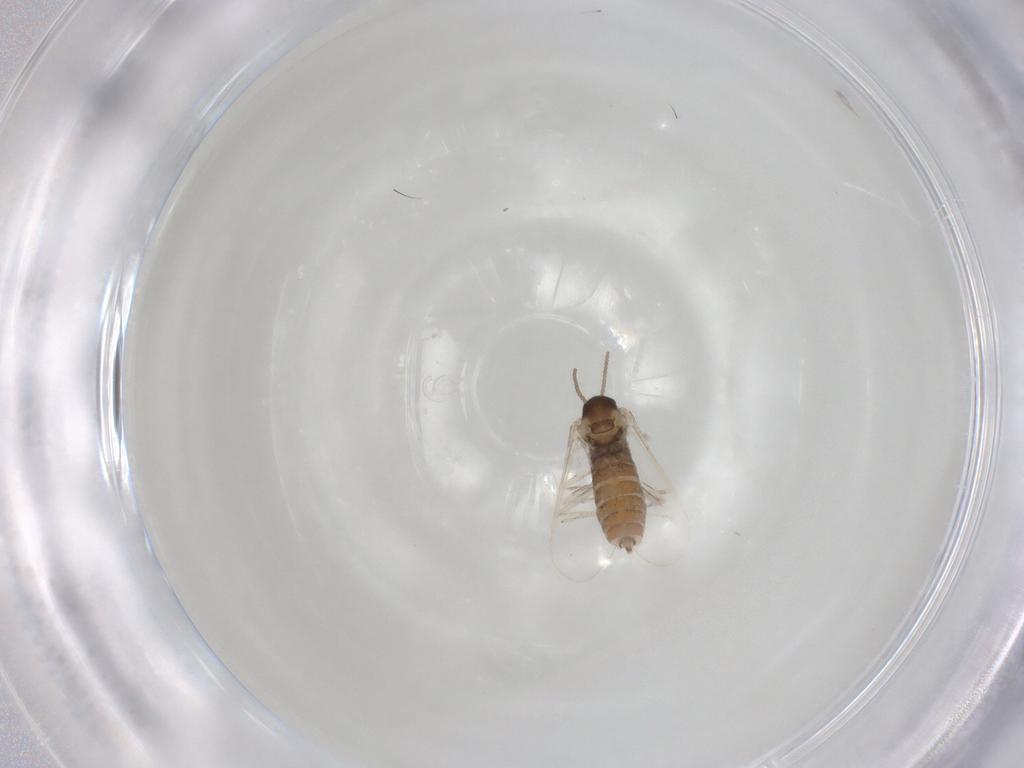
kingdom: Animalia
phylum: Arthropoda
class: Insecta
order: Diptera
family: Cecidomyiidae
